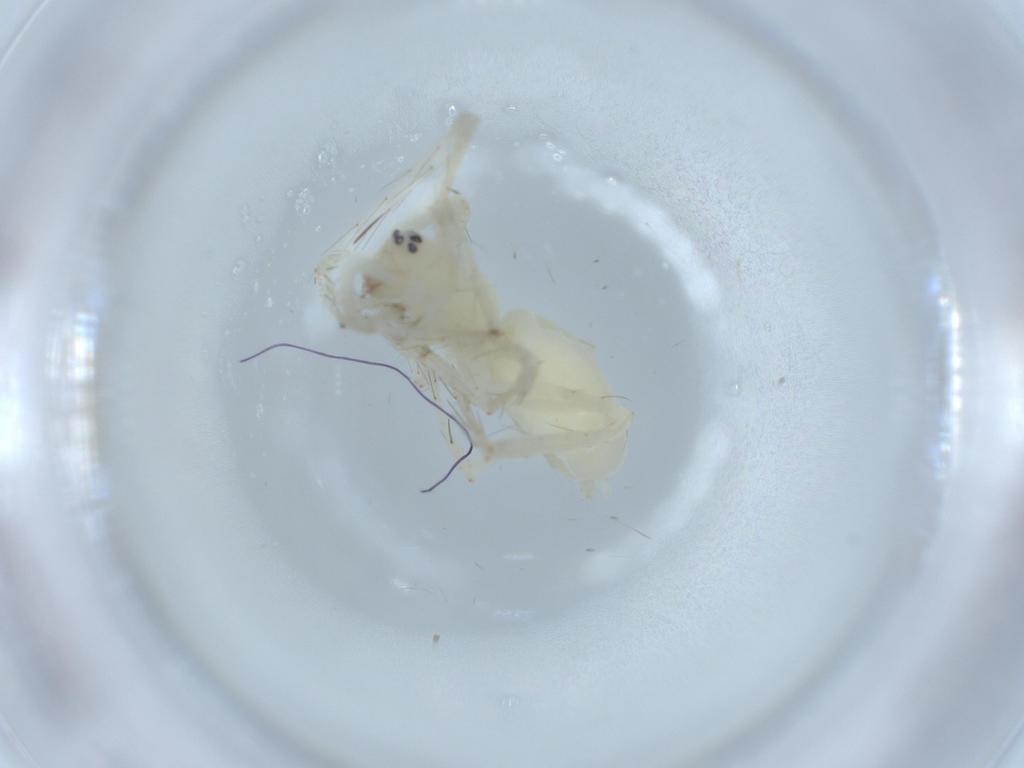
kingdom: Animalia
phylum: Arthropoda
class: Arachnida
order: Araneae
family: Anyphaenidae
